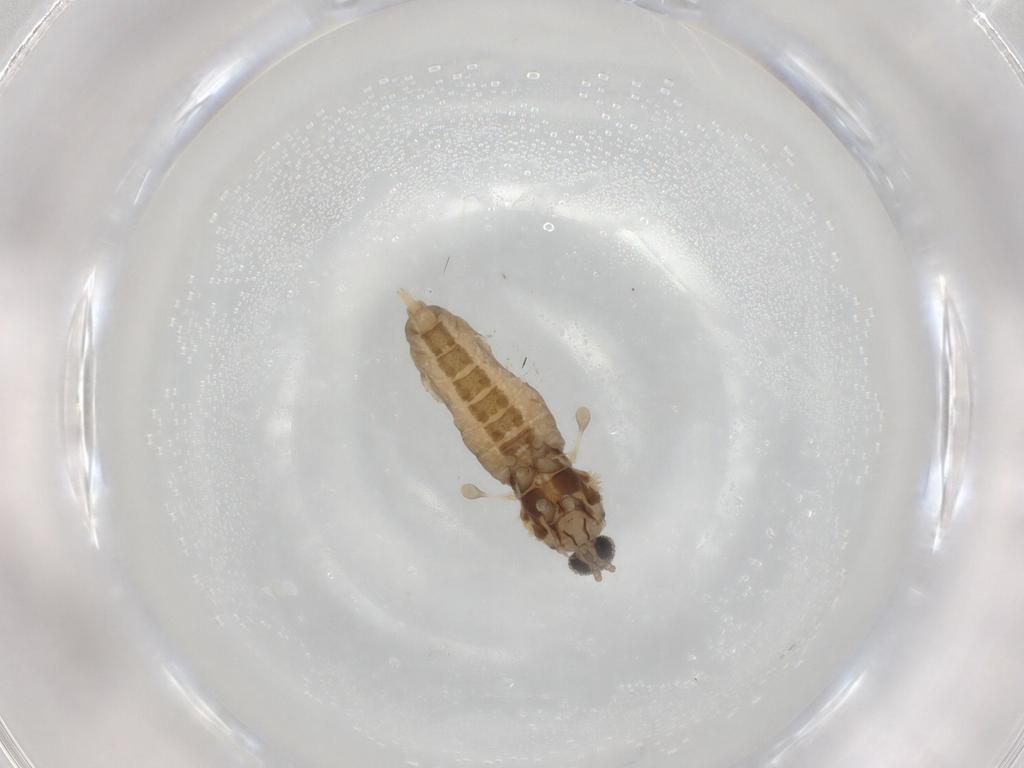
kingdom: Animalia
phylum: Arthropoda
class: Insecta
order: Diptera
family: Cecidomyiidae
